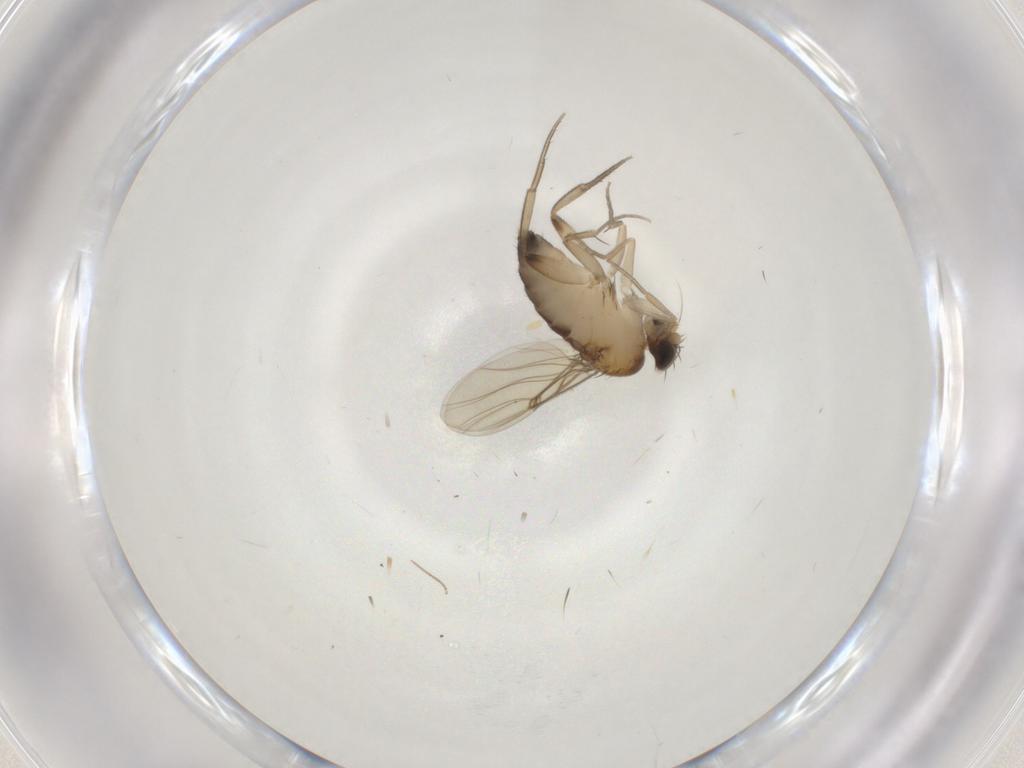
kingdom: Animalia
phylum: Arthropoda
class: Insecta
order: Diptera
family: Phoridae
